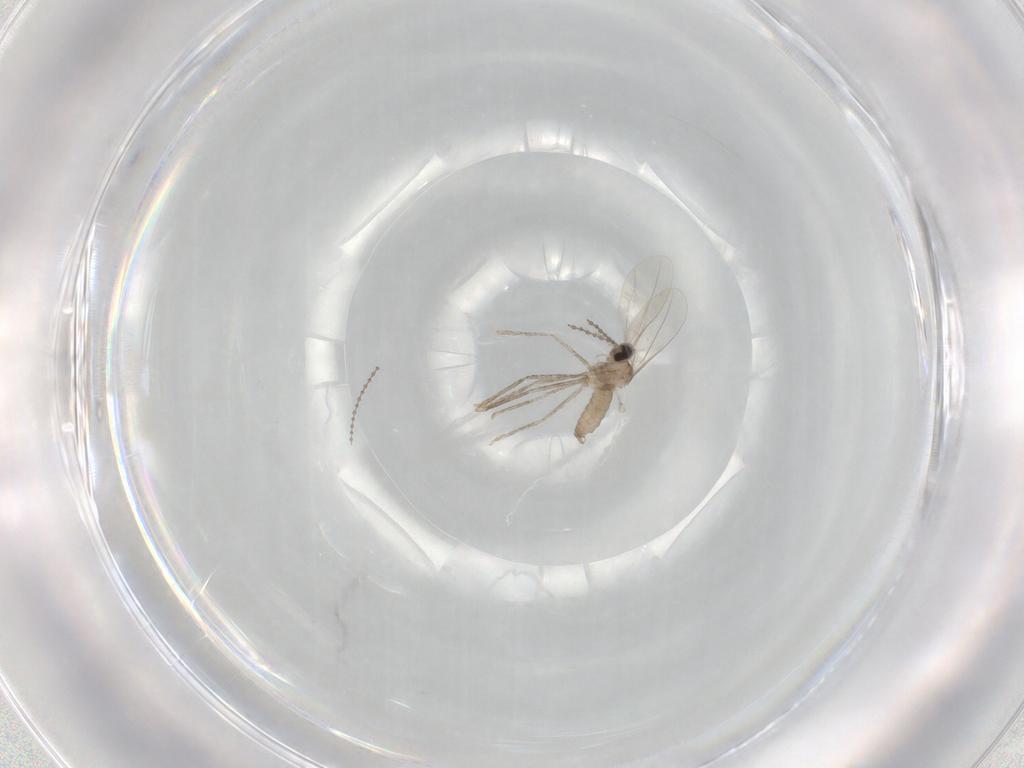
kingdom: Animalia
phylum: Arthropoda
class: Insecta
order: Diptera
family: Cecidomyiidae
